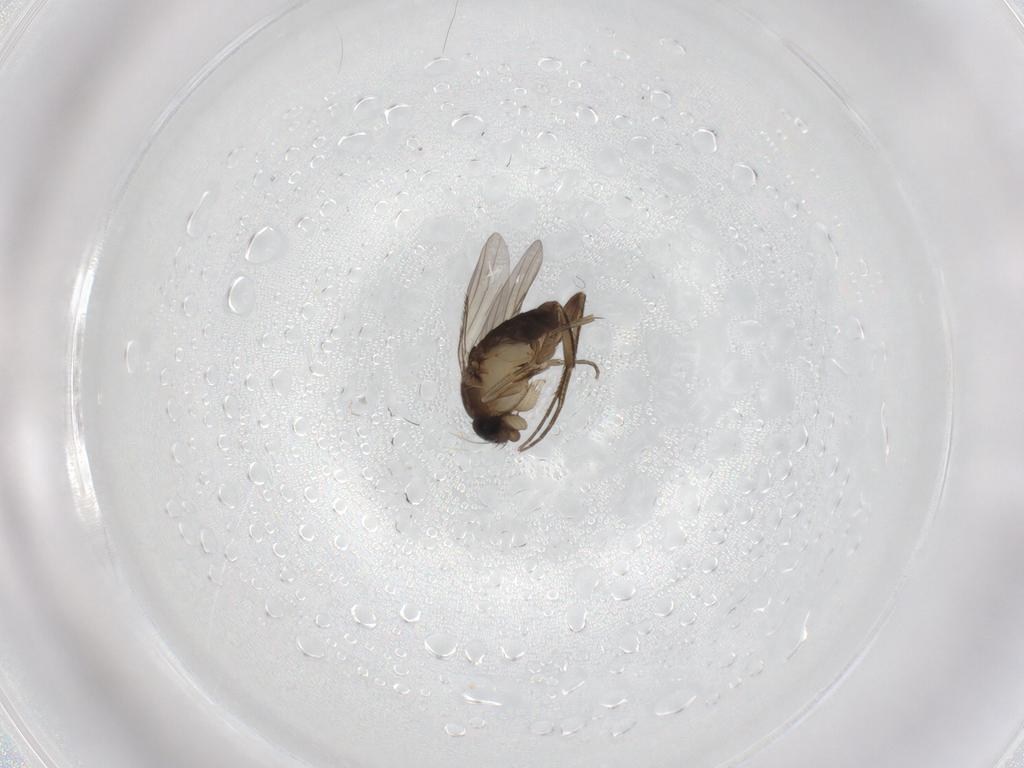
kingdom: Animalia
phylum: Arthropoda
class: Insecta
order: Diptera
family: Phoridae
